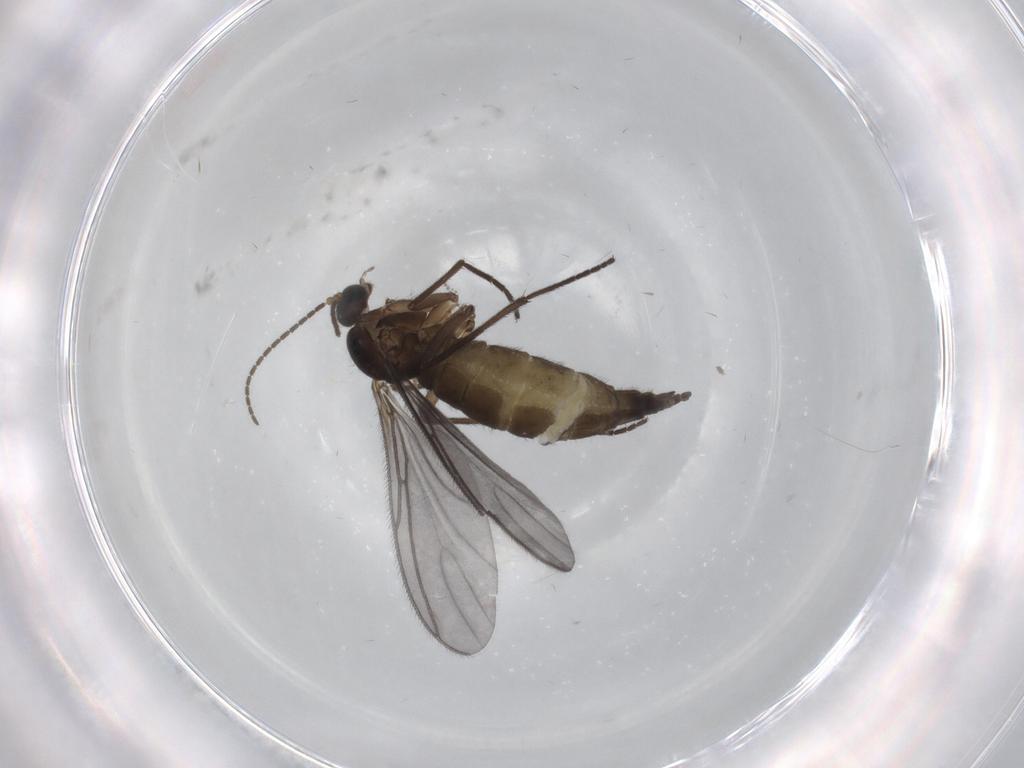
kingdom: Animalia
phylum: Arthropoda
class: Insecta
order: Diptera
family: Sciaridae
